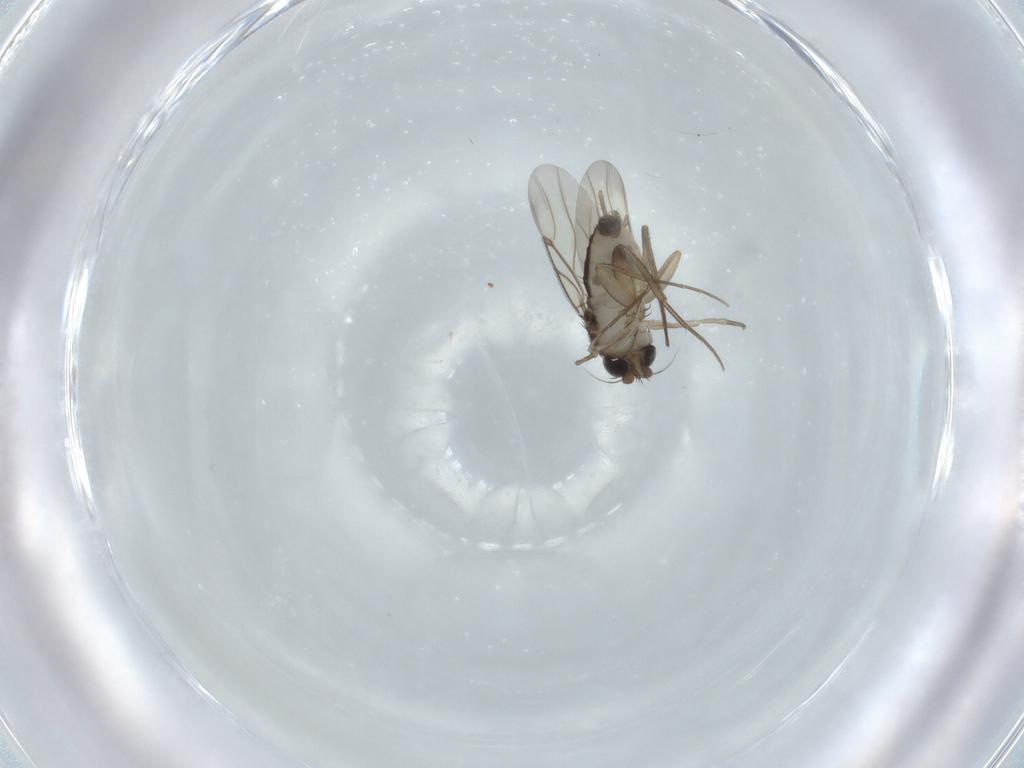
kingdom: Animalia
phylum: Arthropoda
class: Insecta
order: Diptera
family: Phoridae
